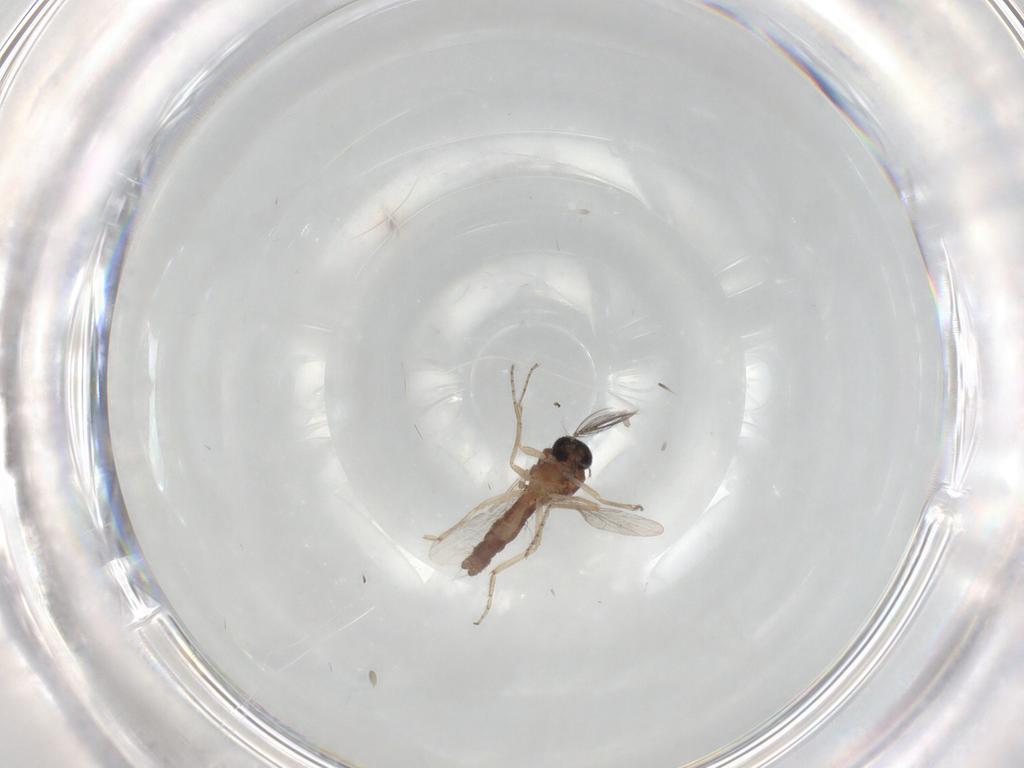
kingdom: Animalia
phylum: Arthropoda
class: Insecta
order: Diptera
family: Ceratopogonidae
